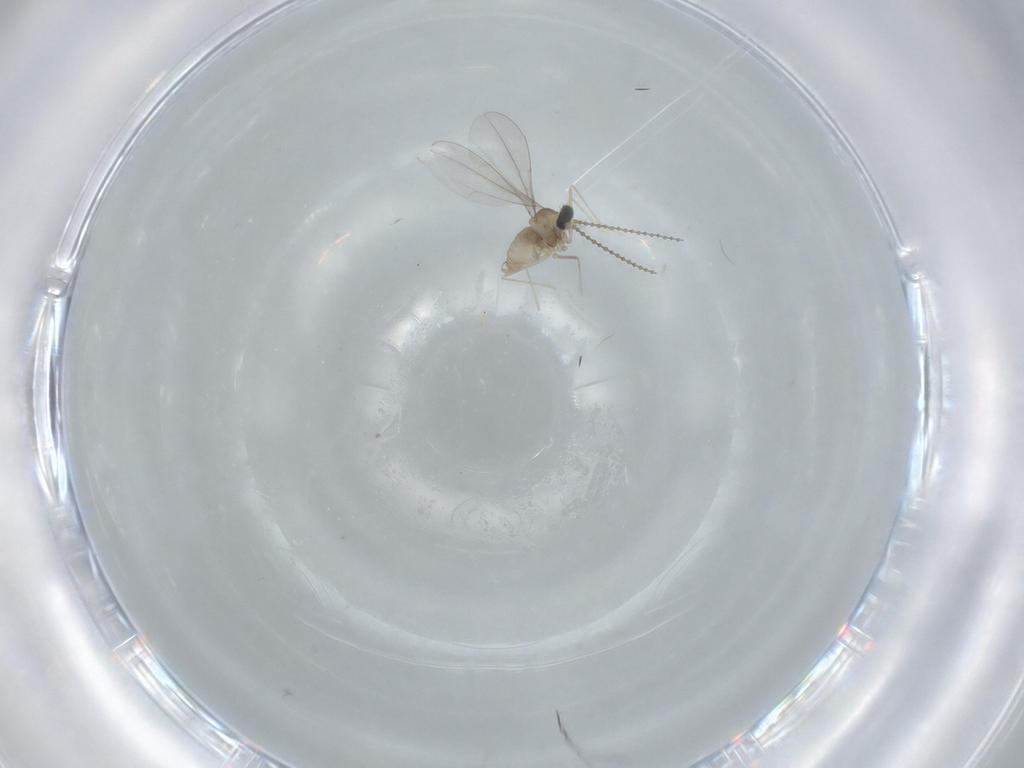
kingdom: Animalia
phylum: Arthropoda
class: Insecta
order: Diptera
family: Cecidomyiidae
